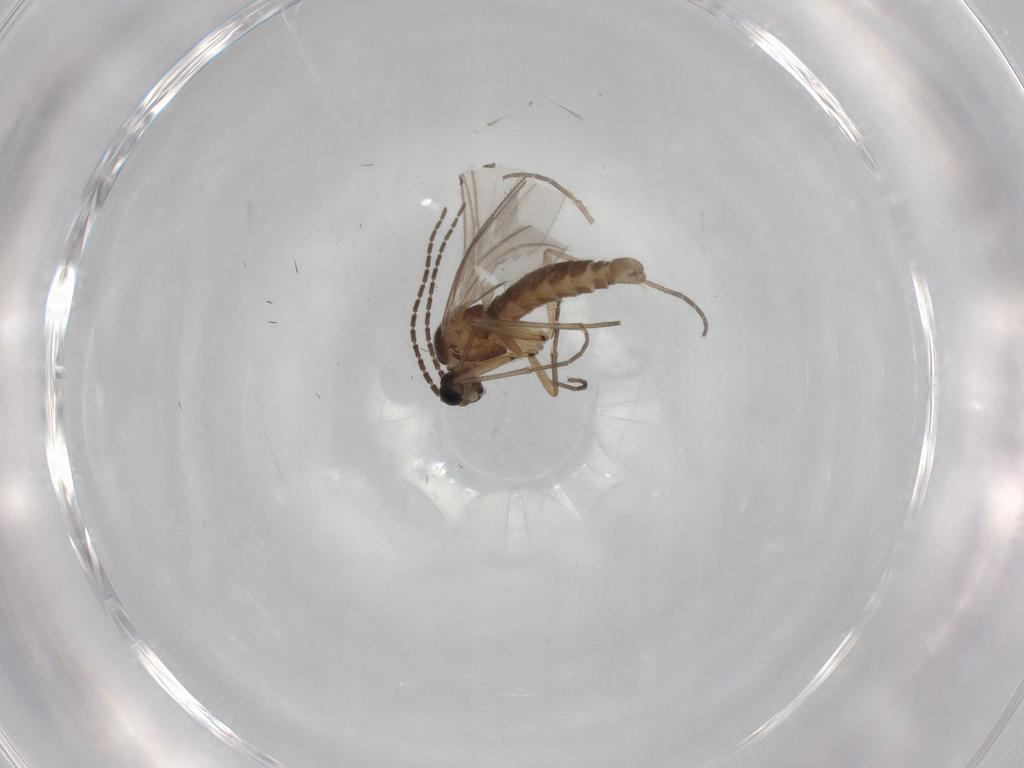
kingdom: Animalia
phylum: Arthropoda
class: Insecta
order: Diptera
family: Sciaridae
